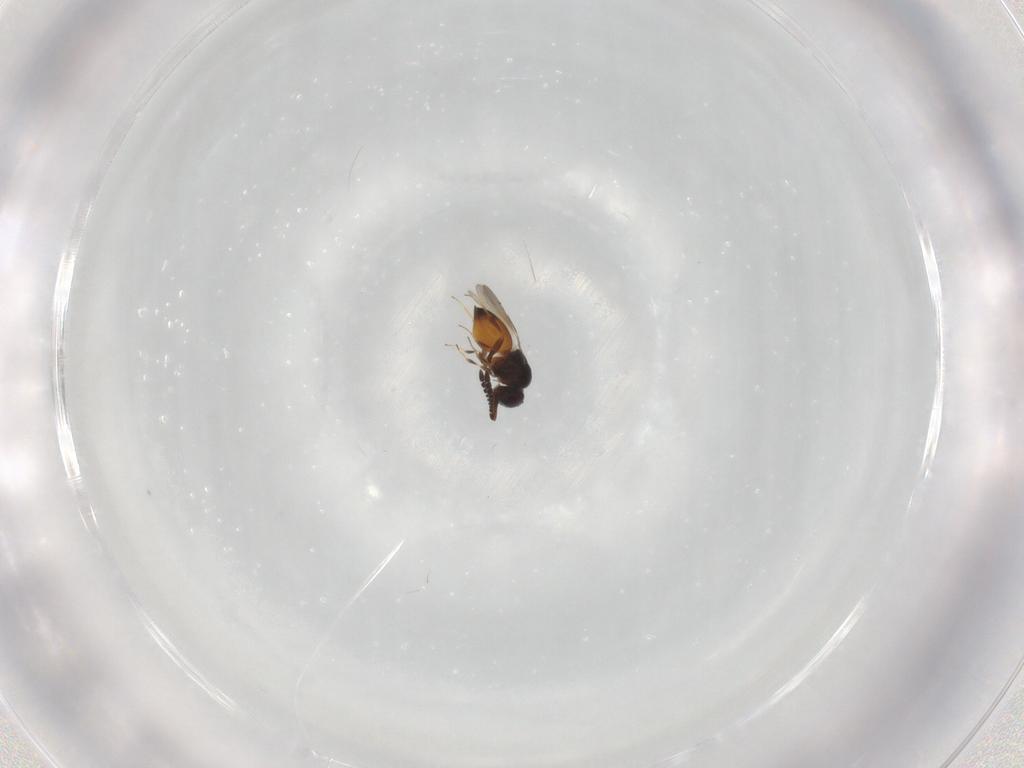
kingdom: Animalia
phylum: Arthropoda
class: Insecta
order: Hymenoptera
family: Ceraphronidae
